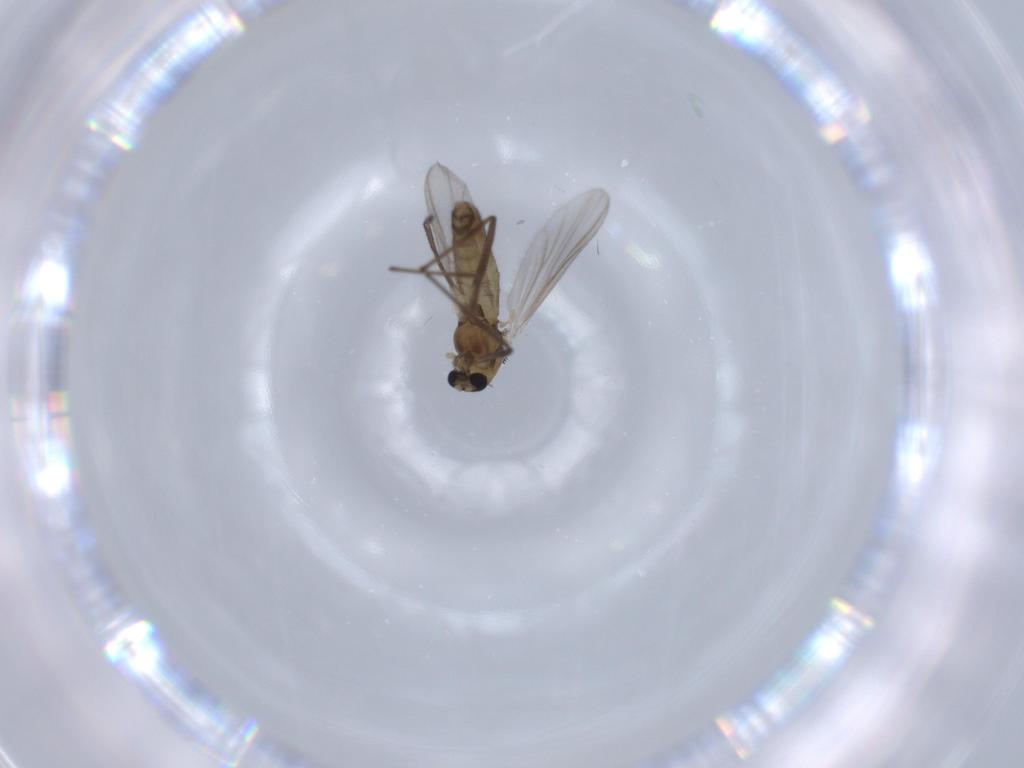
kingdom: Animalia
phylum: Arthropoda
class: Insecta
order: Diptera
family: Chironomidae
